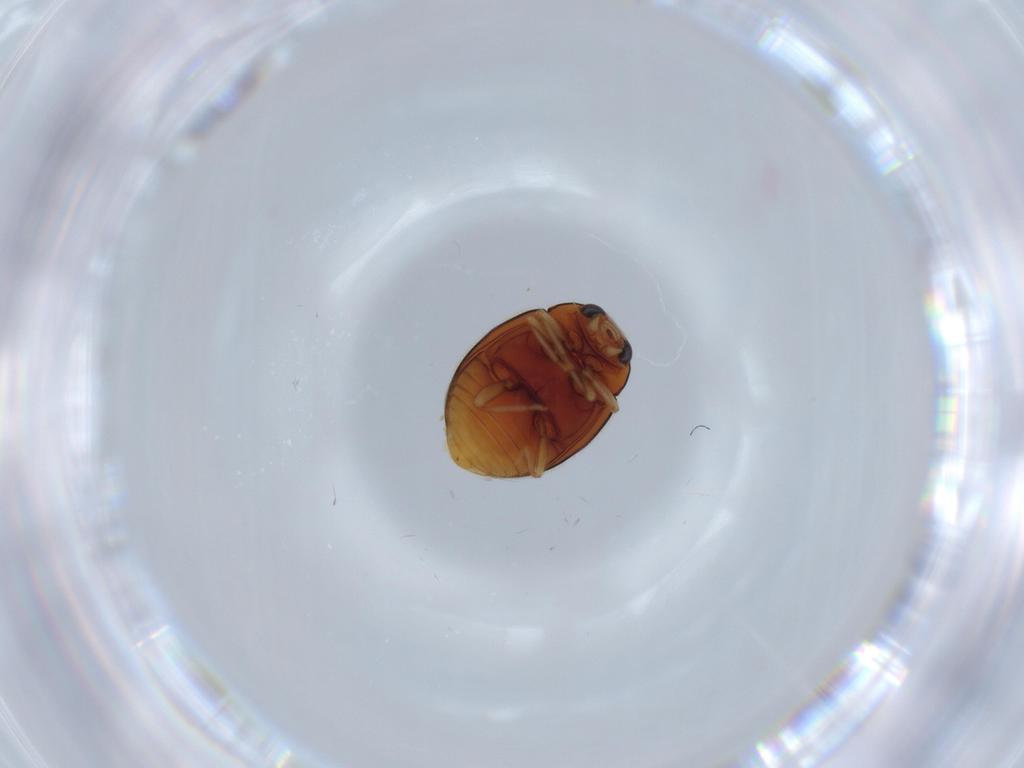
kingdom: Animalia
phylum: Arthropoda
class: Insecta
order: Coleoptera
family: Coccinellidae
